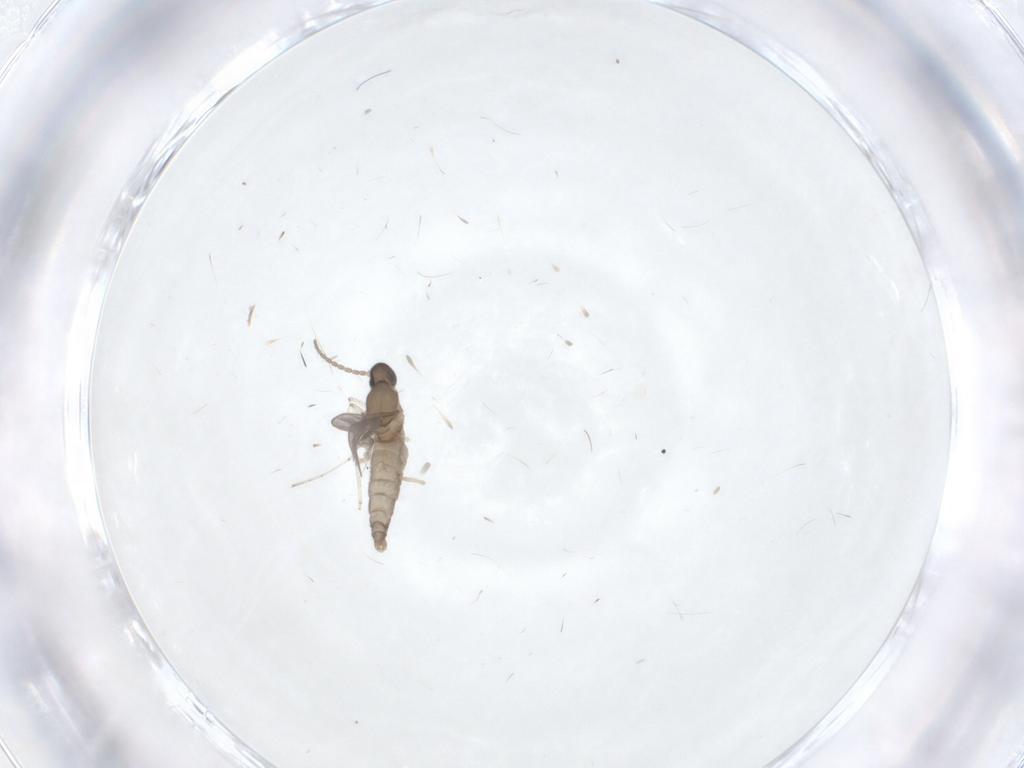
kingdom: Animalia
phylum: Arthropoda
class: Insecta
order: Diptera
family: Cecidomyiidae
